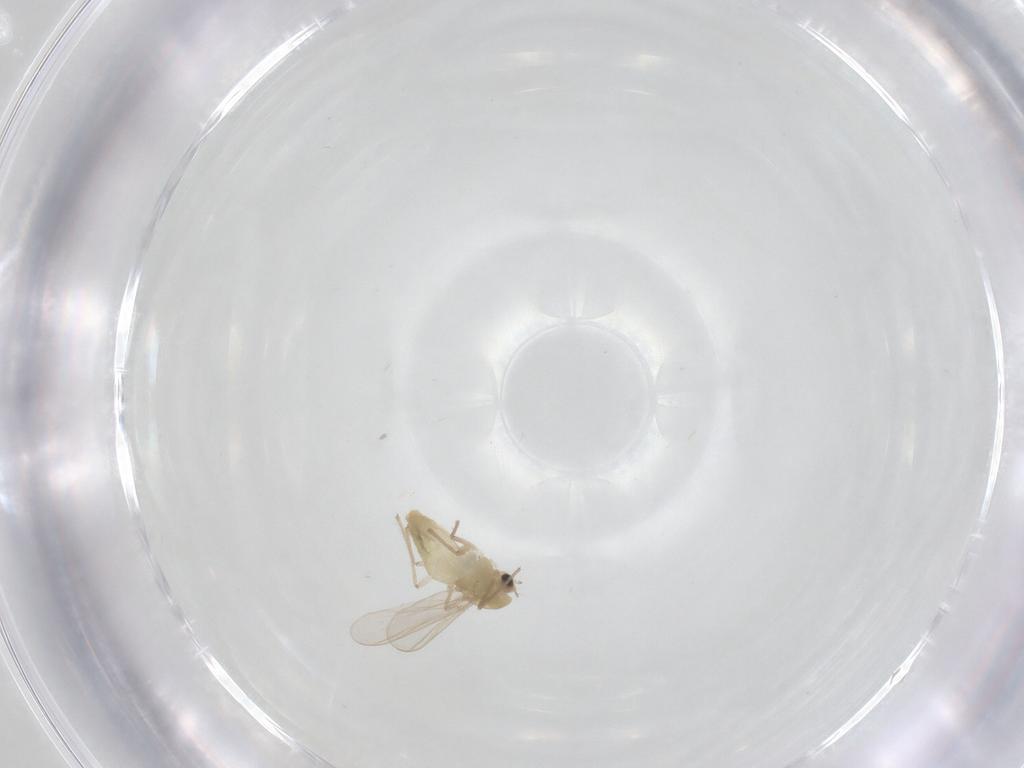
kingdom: Animalia
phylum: Arthropoda
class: Insecta
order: Diptera
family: Chironomidae
